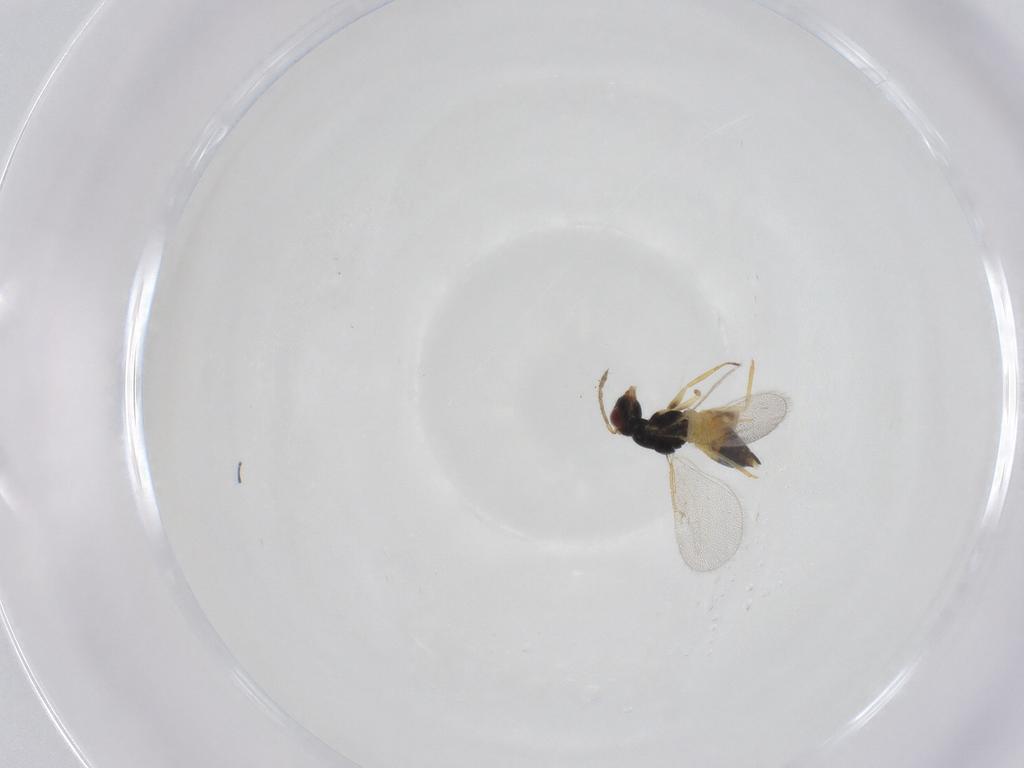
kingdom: Animalia
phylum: Arthropoda
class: Insecta
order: Hymenoptera
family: Eulophidae
